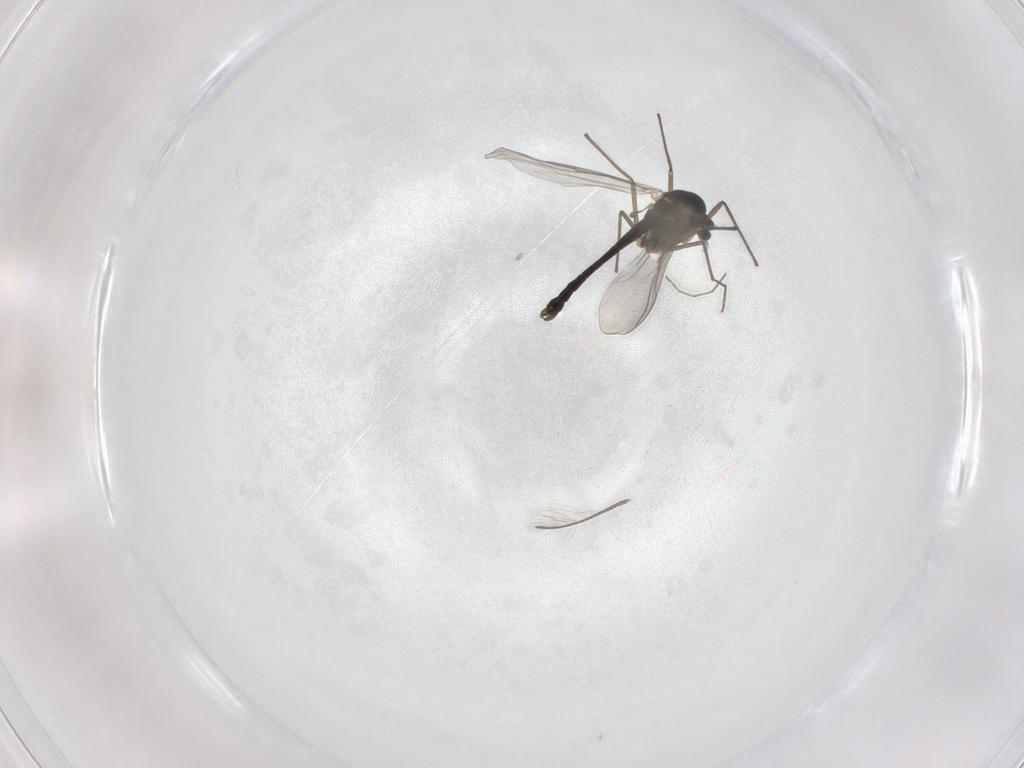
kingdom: Animalia
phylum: Arthropoda
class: Insecta
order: Diptera
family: Chironomidae
